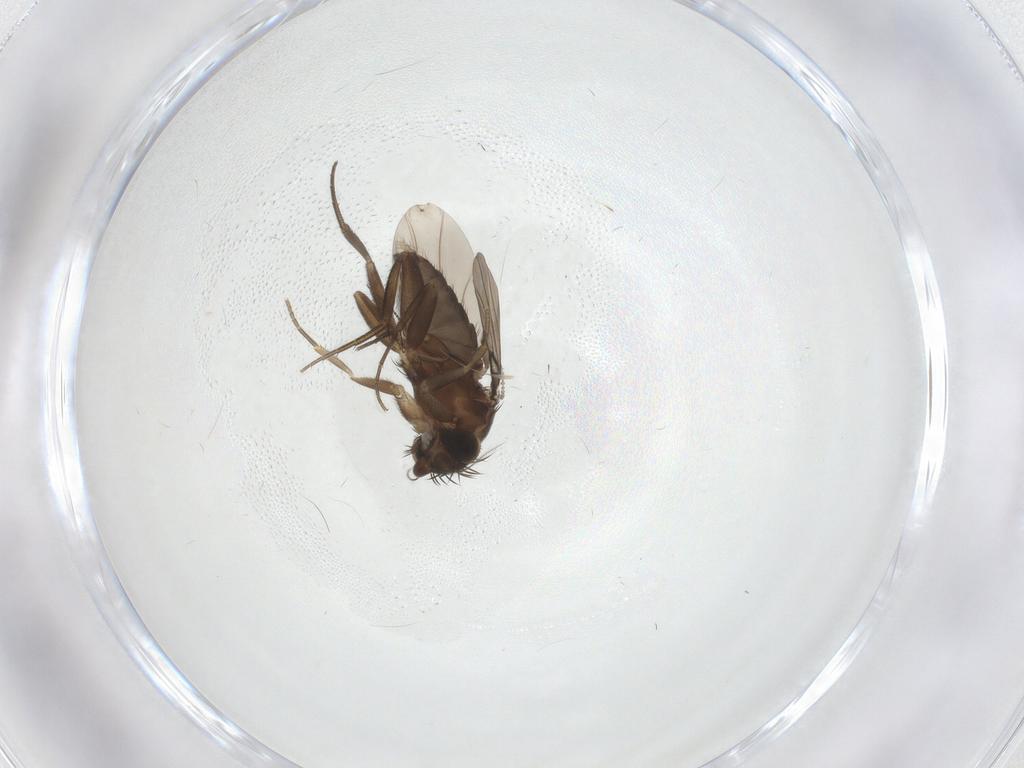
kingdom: Animalia
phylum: Arthropoda
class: Insecta
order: Diptera
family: Phoridae
